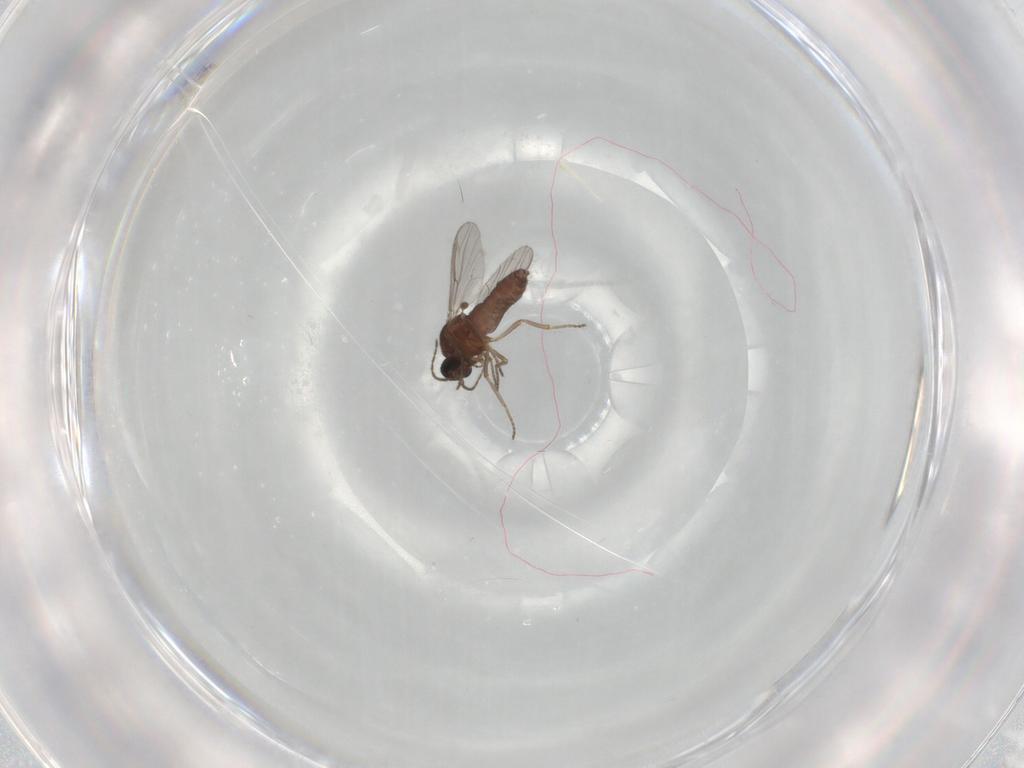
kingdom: Animalia
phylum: Arthropoda
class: Insecta
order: Diptera
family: Ceratopogonidae
